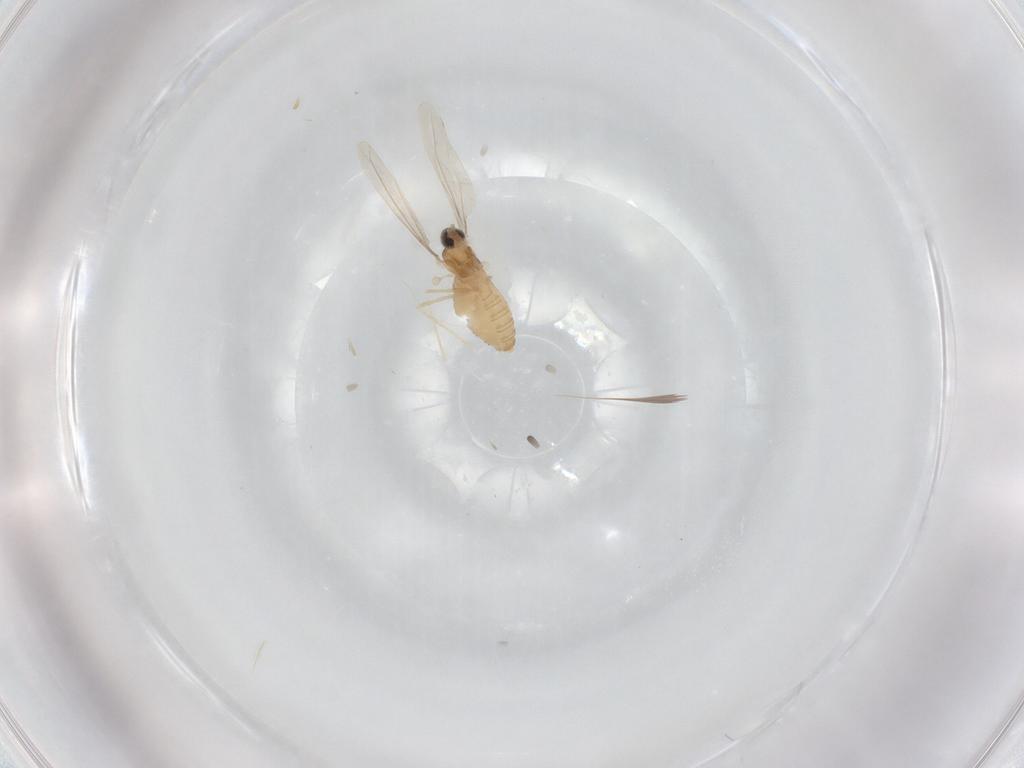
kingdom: Animalia
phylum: Arthropoda
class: Insecta
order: Diptera
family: Cecidomyiidae
